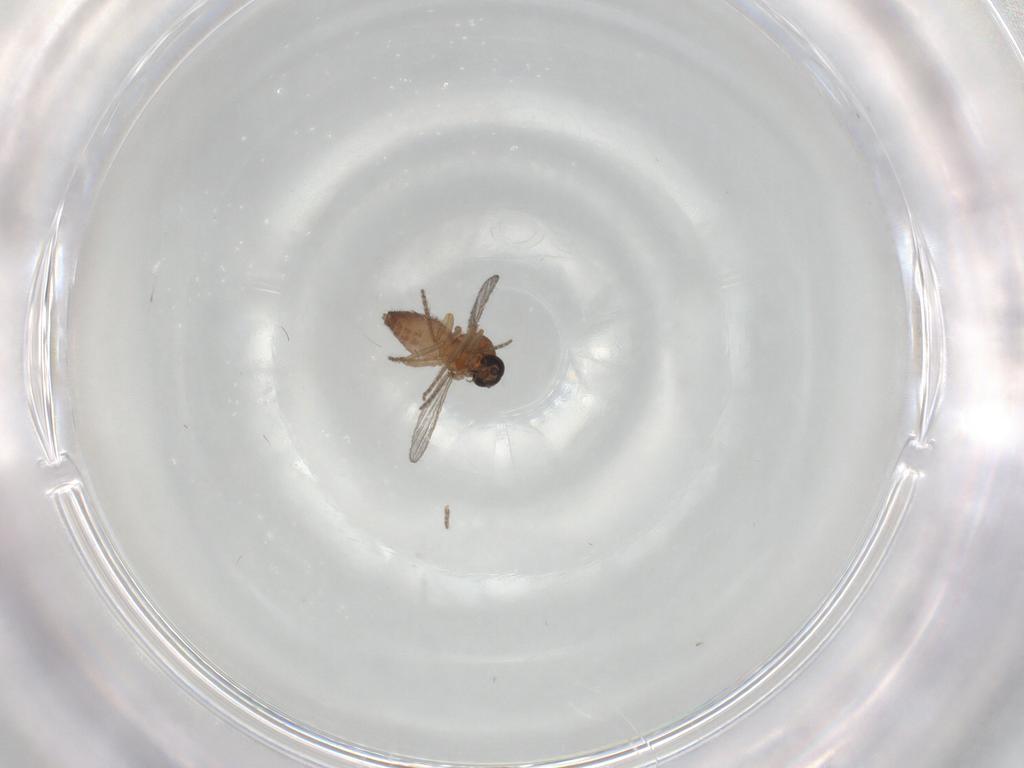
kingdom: Animalia
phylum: Arthropoda
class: Insecta
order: Diptera
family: Ceratopogonidae
